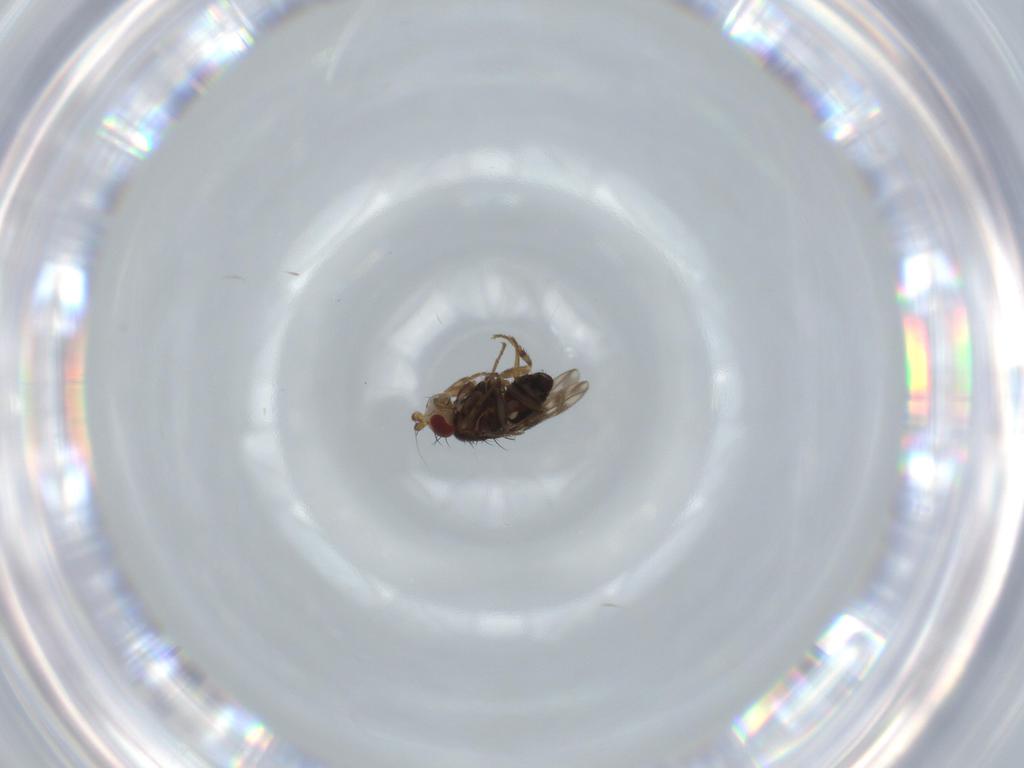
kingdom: Animalia
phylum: Arthropoda
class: Insecta
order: Diptera
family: Sphaeroceridae
